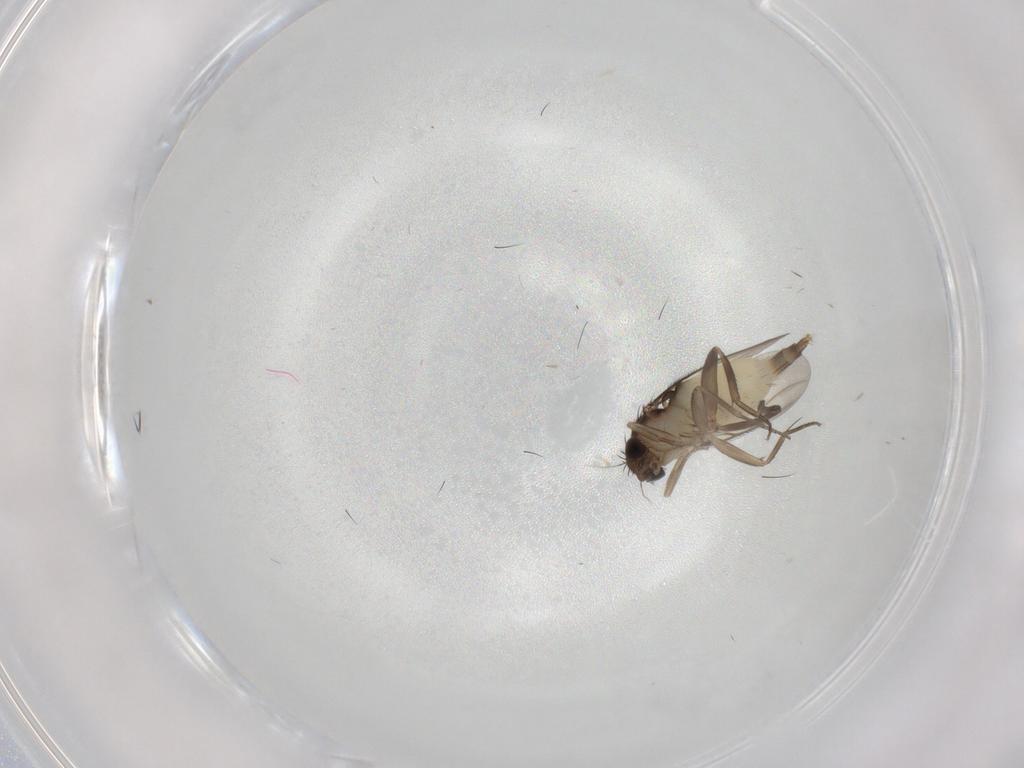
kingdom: Animalia
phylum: Arthropoda
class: Insecta
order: Diptera
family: Phoridae
